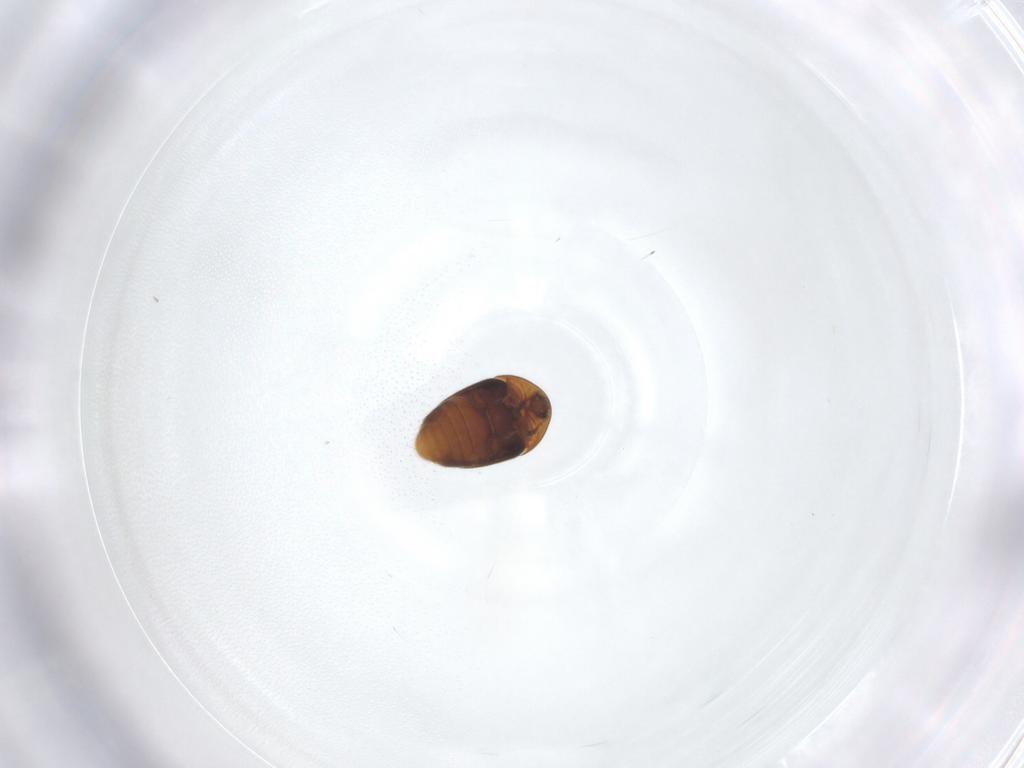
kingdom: Animalia
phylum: Arthropoda
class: Insecta
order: Coleoptera
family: Corylophidae
